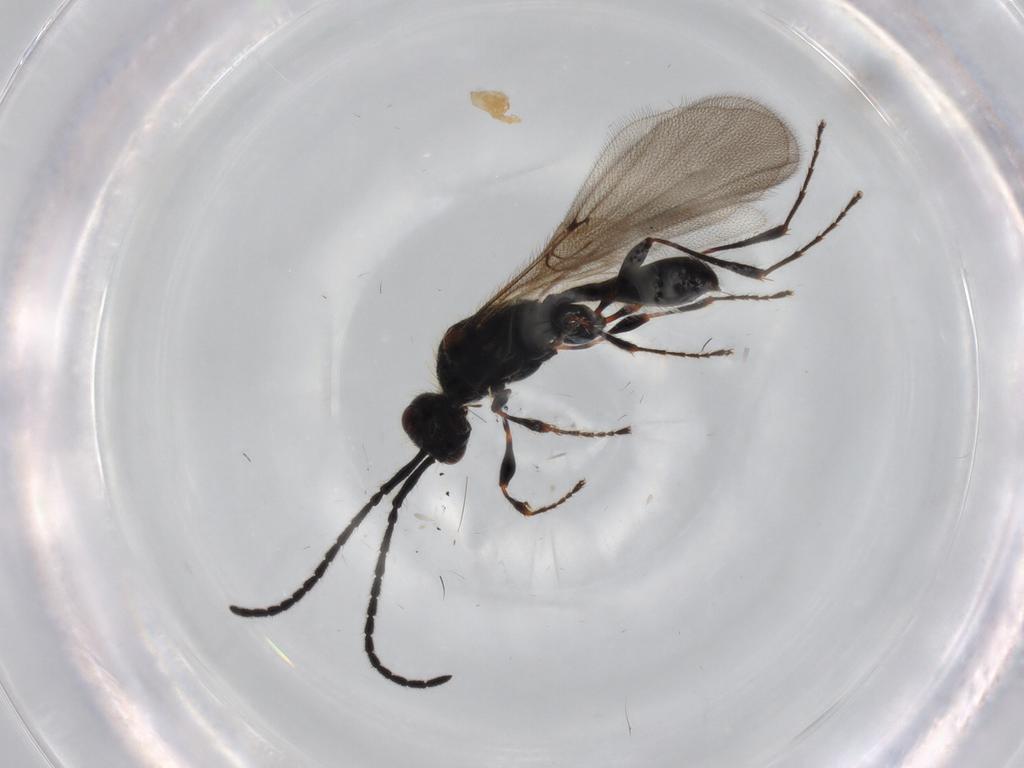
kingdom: Animalia
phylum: Arthropoda
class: Insecta
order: Hymenoptera
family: Diapriidae
